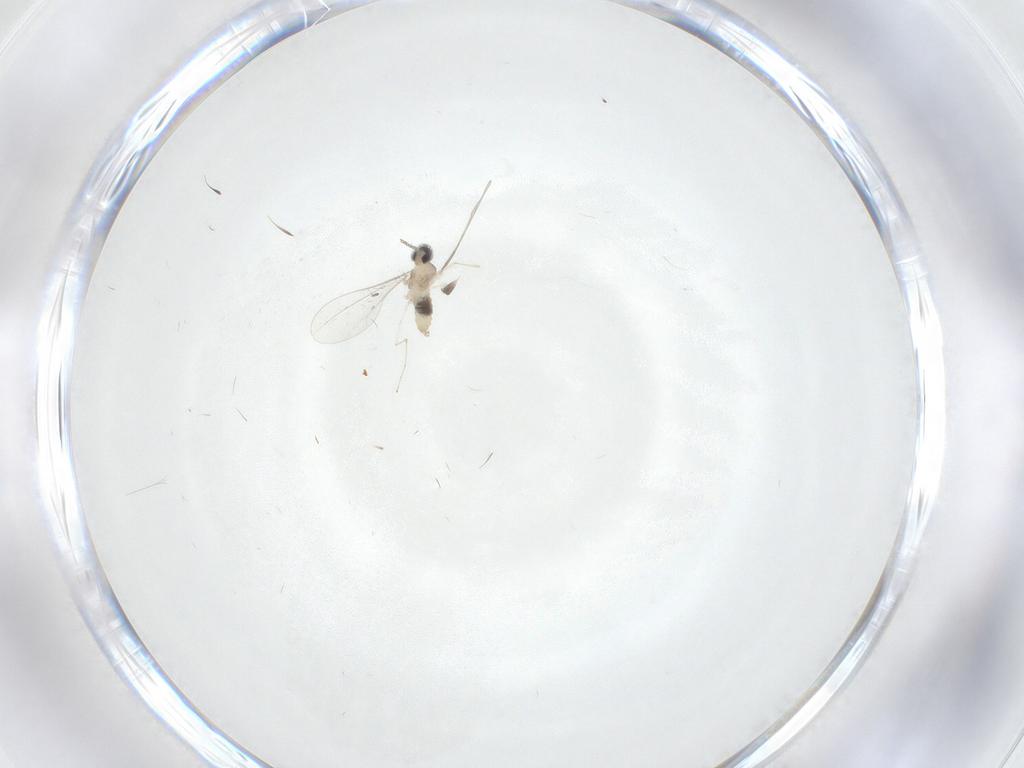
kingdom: Animalia
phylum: Arthropoda
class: Insecta
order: Diptera
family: Cecidomyiidae
